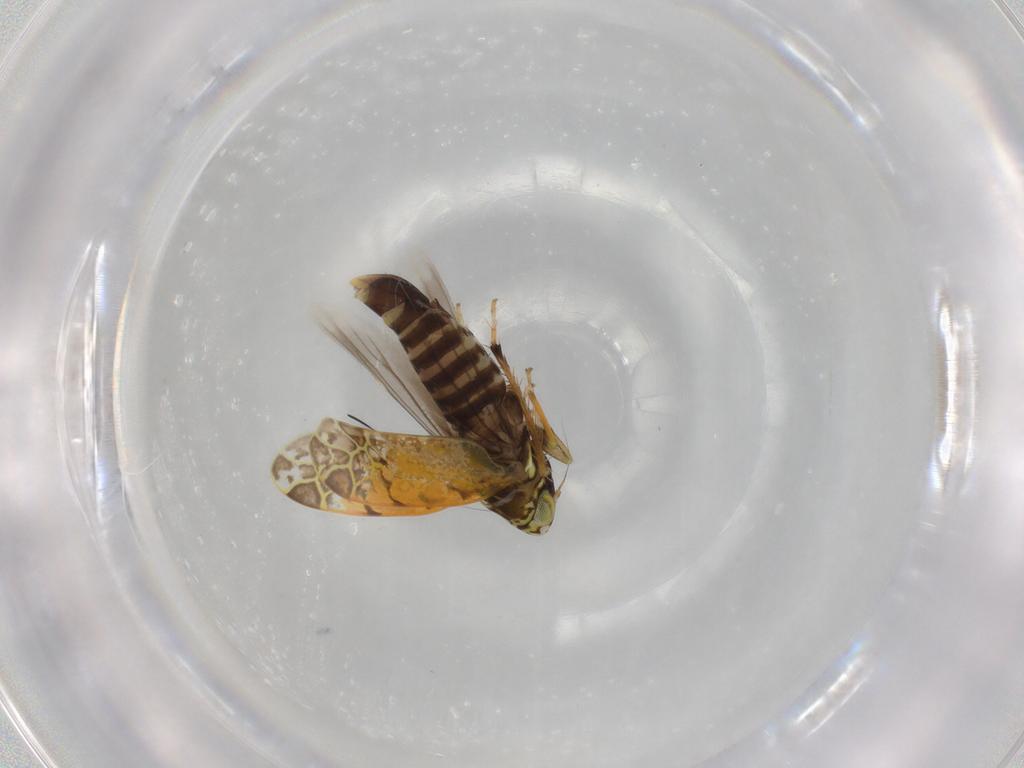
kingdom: Animalia
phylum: Arthropoda
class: Insecta
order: Hemiptera
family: Cicadellidae
